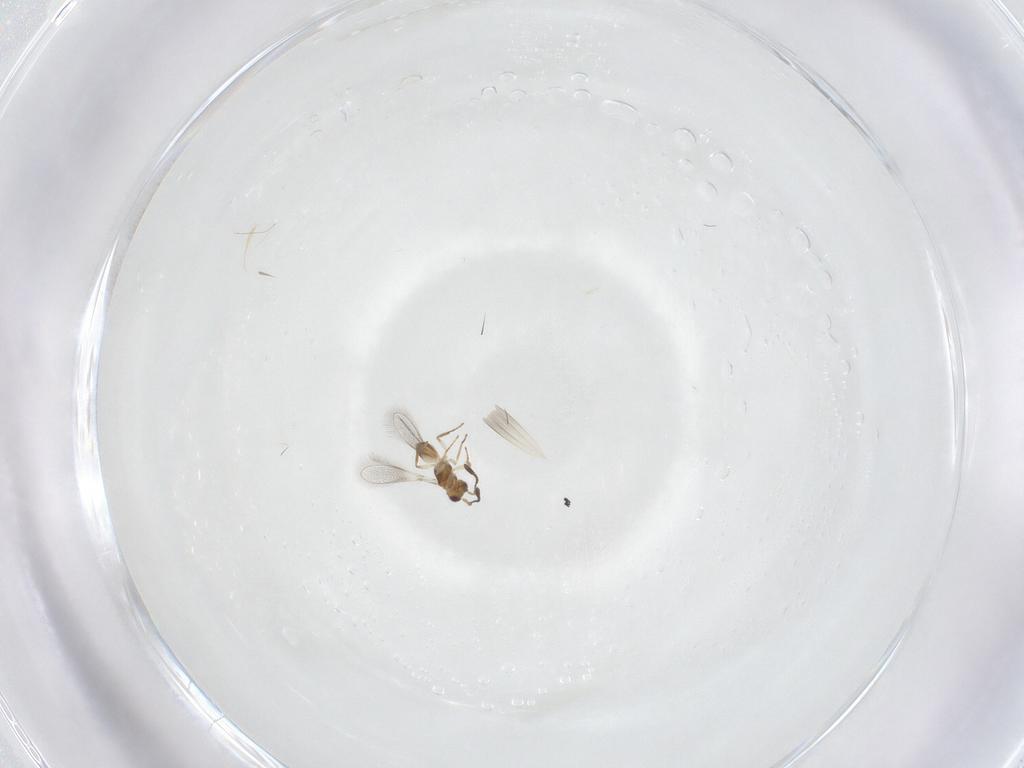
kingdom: Animalia
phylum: Arthropoda
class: Insecta
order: Hymenoptera
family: Mymaridae
